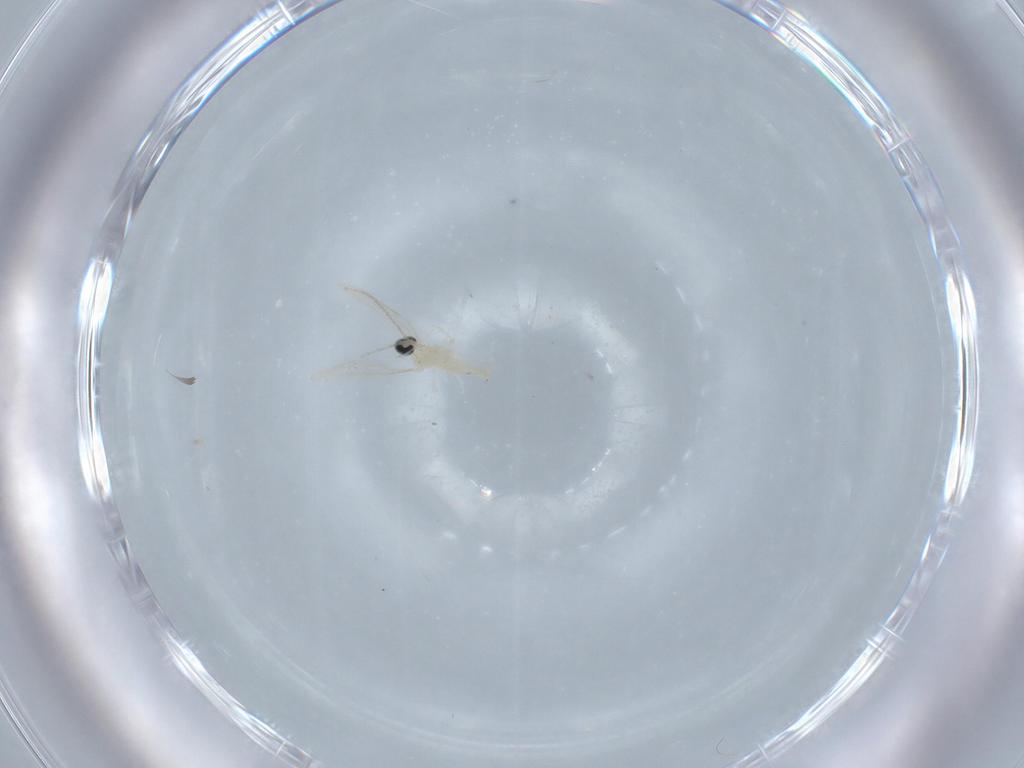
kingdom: Animalia
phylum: Arthropoda
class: Insecta
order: Diptera
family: Cecidomyiidae
